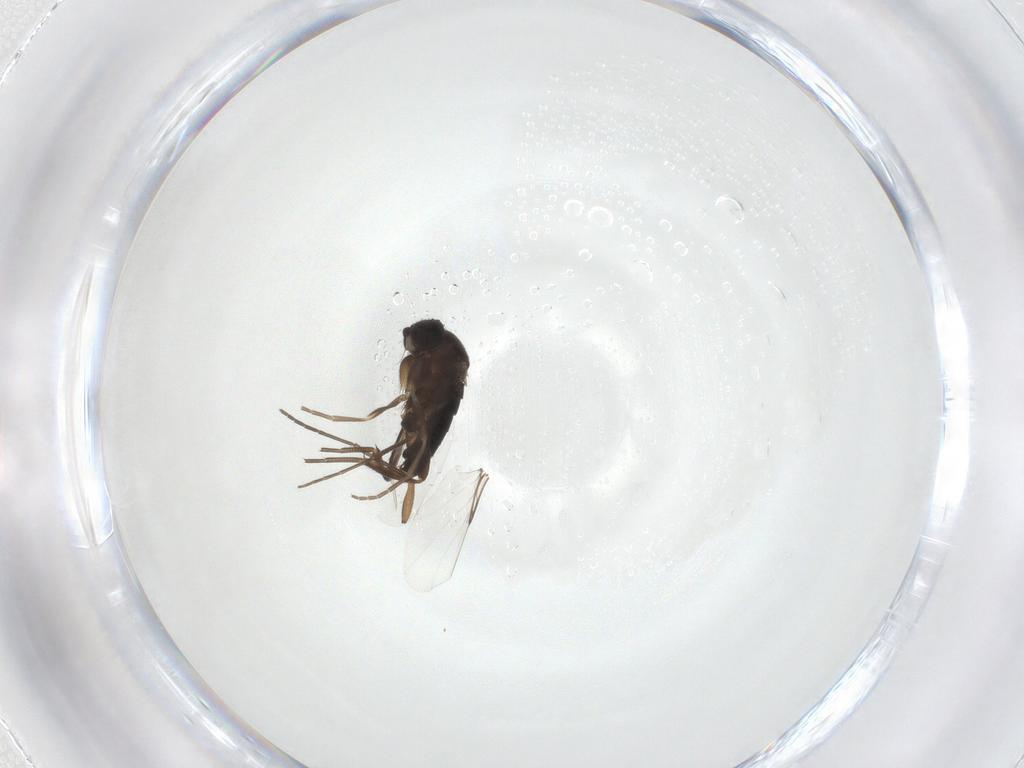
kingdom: Animalia
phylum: Arthropoda
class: Insecta
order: Diptera
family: Phoridae
